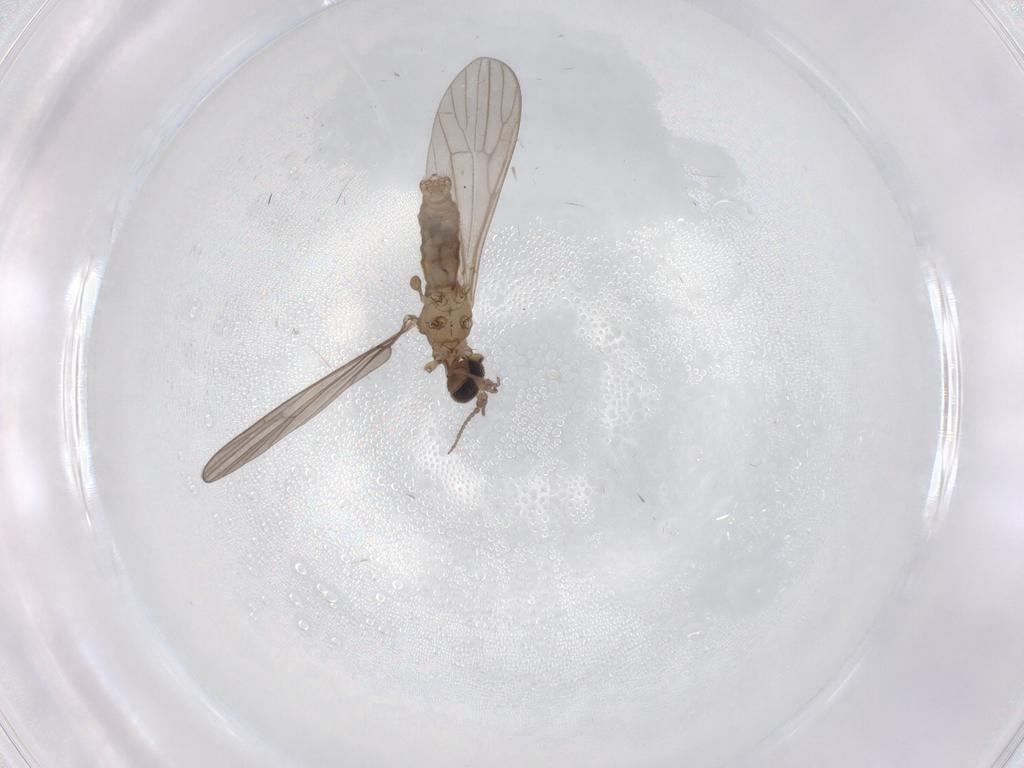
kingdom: Animalia
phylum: Arthropoda
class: Insecta
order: Diptera
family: Limoniidae
